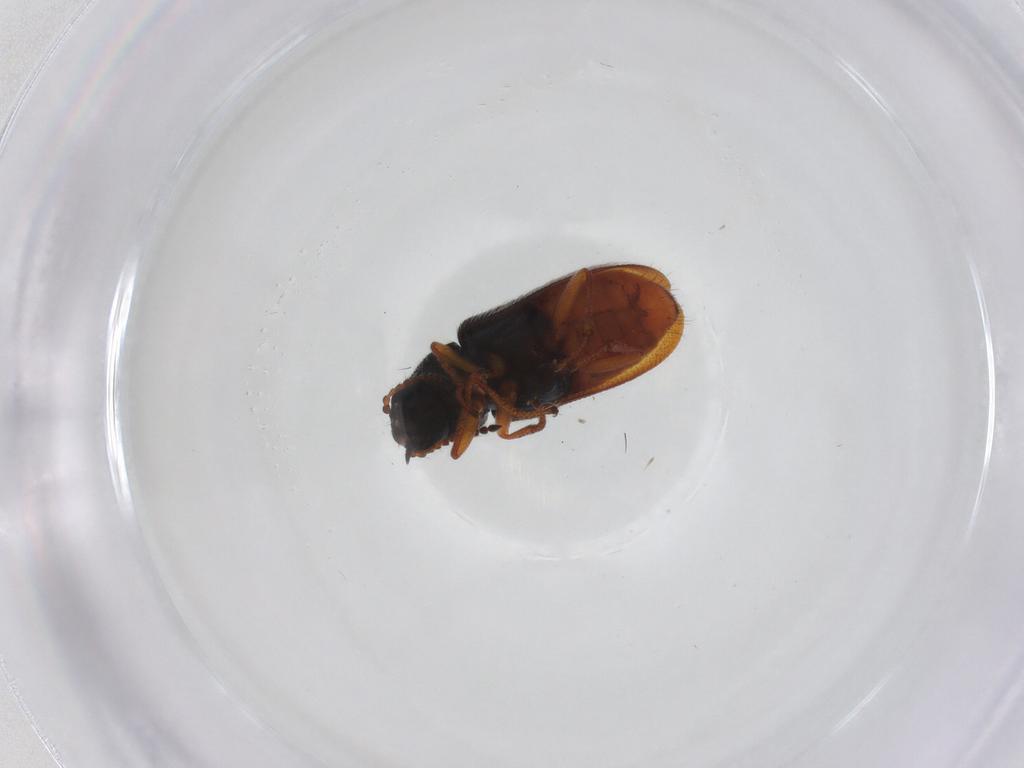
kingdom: Animalia
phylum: Arthropoda
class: Insecta
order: Coleoptera
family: Melyridae
